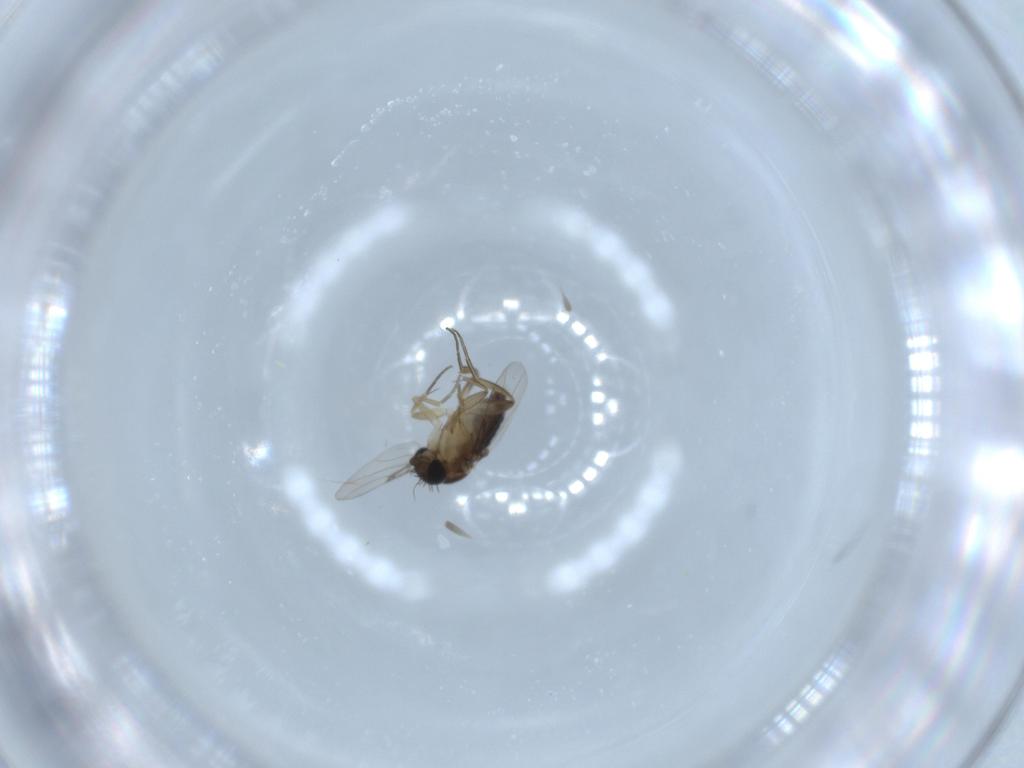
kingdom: Animalia
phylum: Arthropoda
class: Insecta
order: Diptera
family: Phoridae
